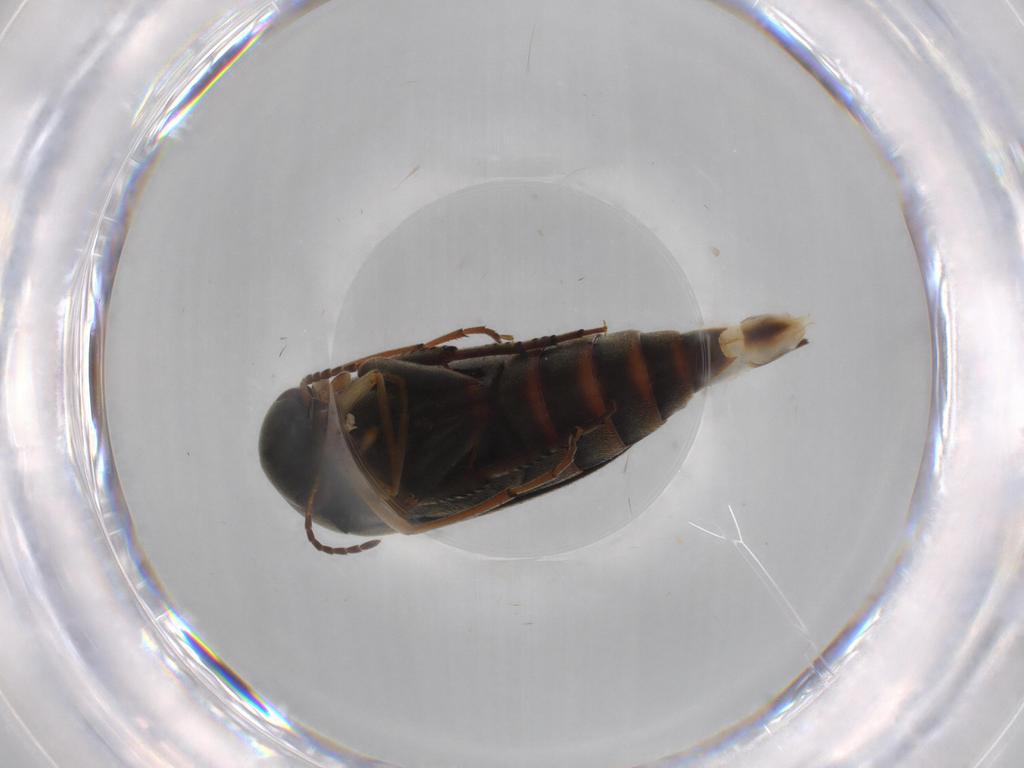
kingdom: Animalia
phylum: Arthropoda
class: Insecta
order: Coleoptera
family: Mordellidae
